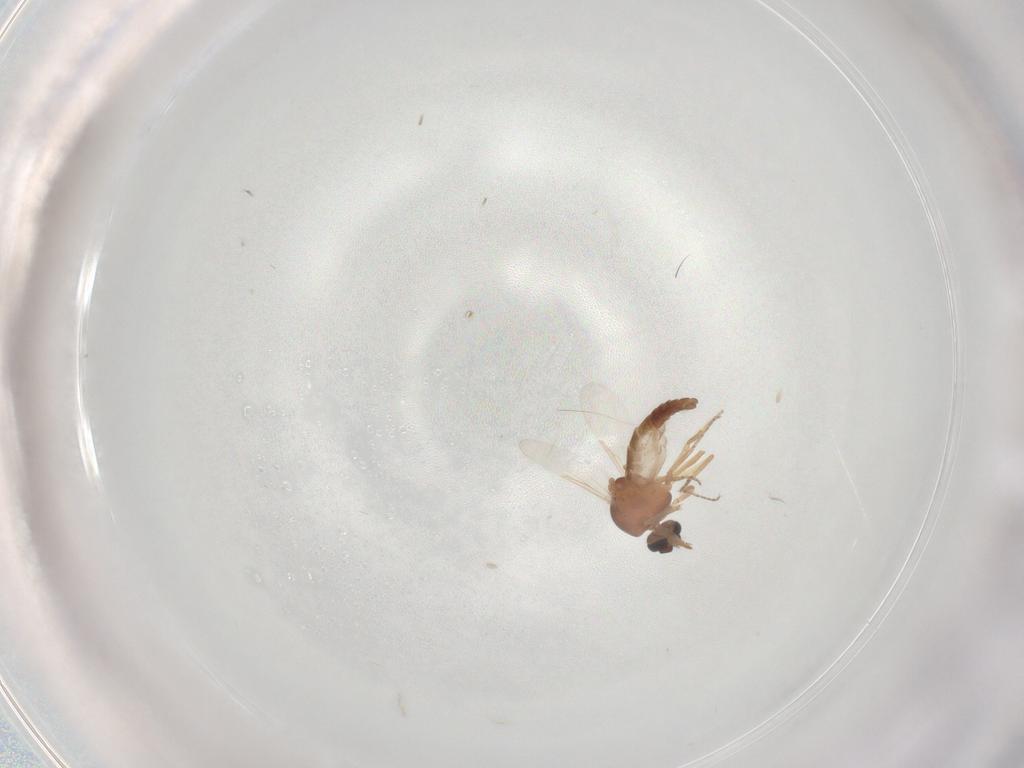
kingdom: Animalia
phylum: Arthropoda
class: Insecta
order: Diptera
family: Ceratopogonidae
